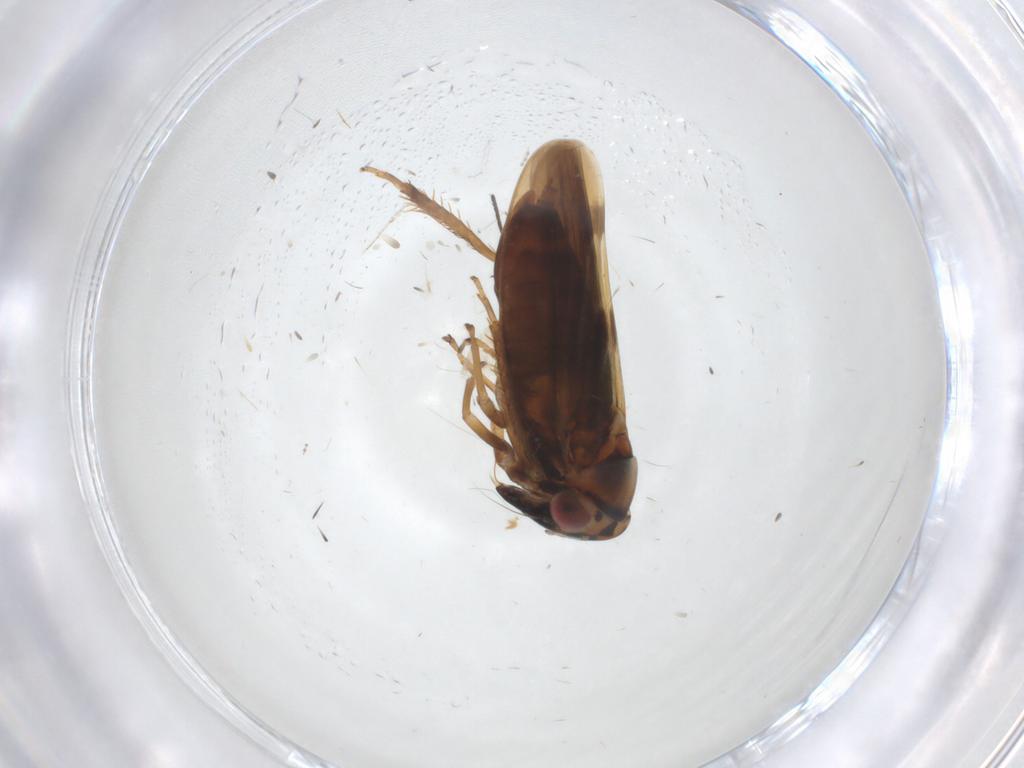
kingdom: Animalia
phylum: Arthropoda
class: Insecta
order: Hemiptera
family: Cicadellidae
